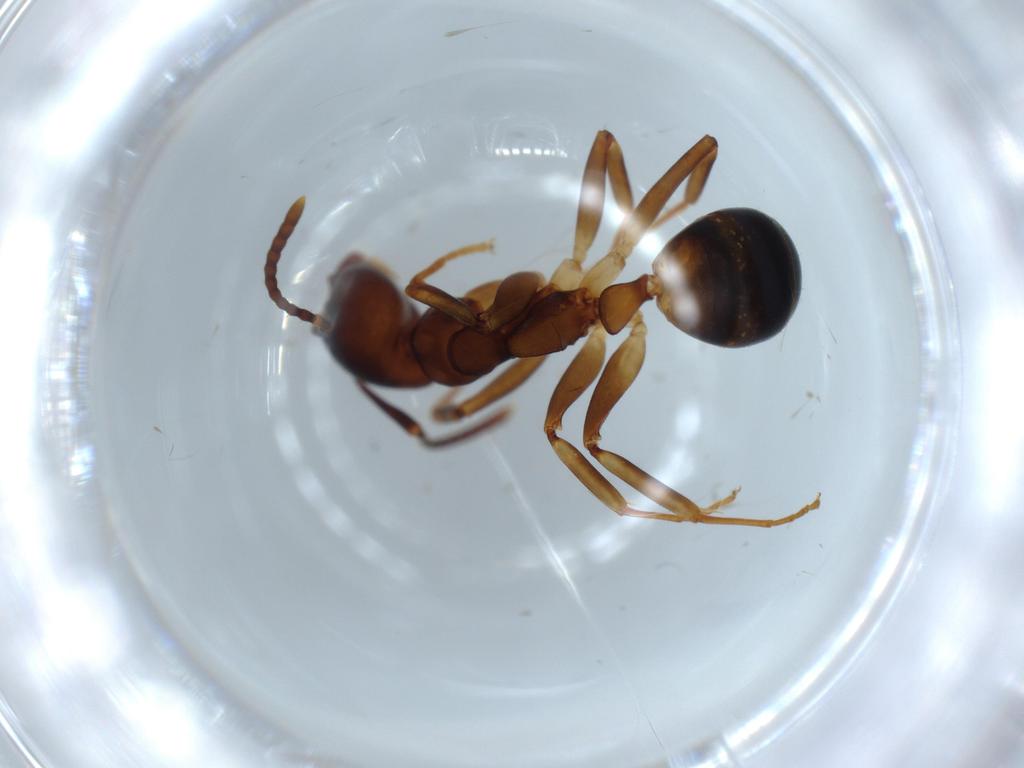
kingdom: Animalia
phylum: Arthropoda
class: Insecta
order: Hymenoptera
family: Formicidae
